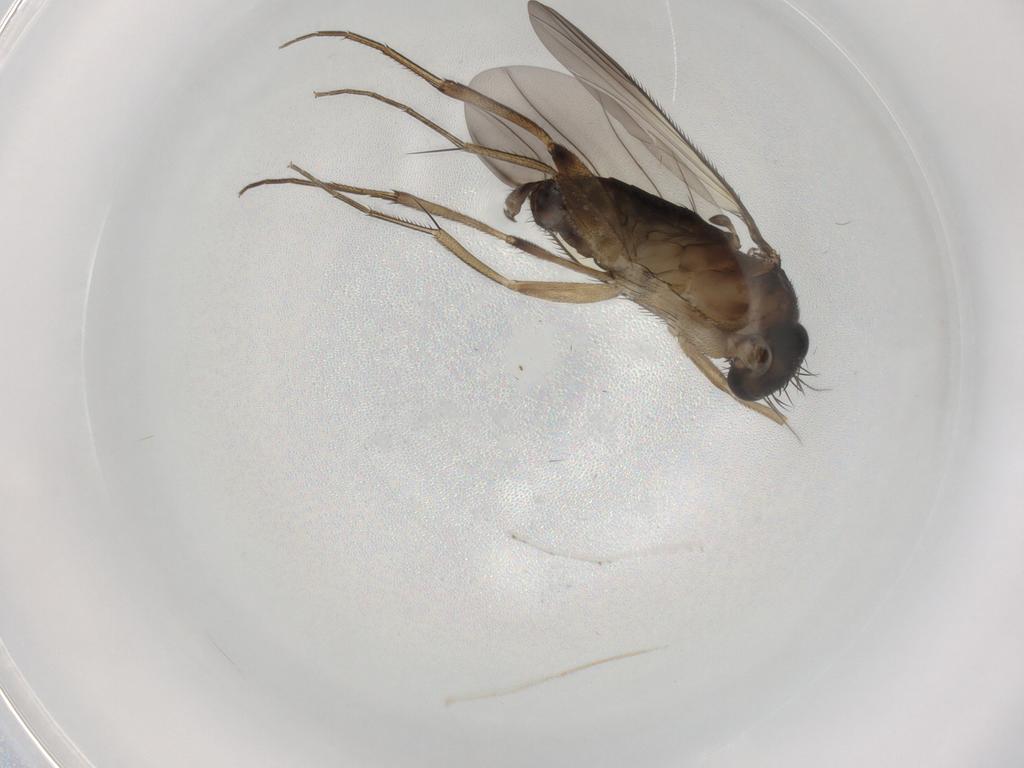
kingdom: Animalia
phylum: Arthropoda
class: Insecta
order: Diptera
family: Phoridae
